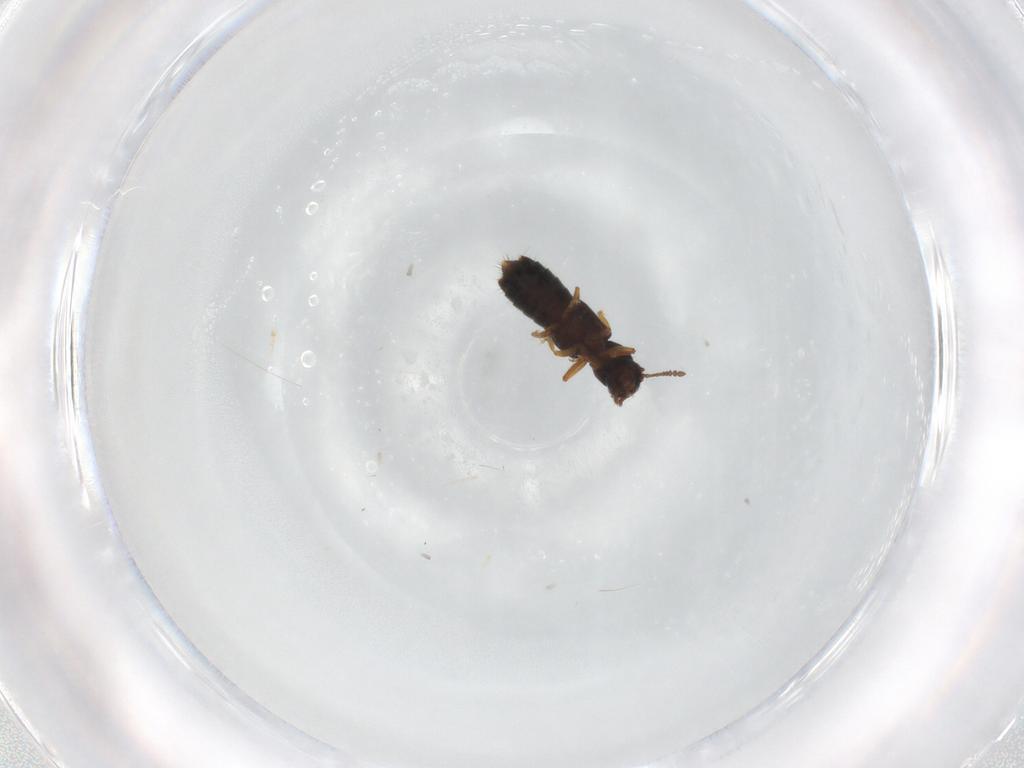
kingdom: Animalia
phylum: Arthropoda
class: Insecta
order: Coleoptera
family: Staphylinidae
